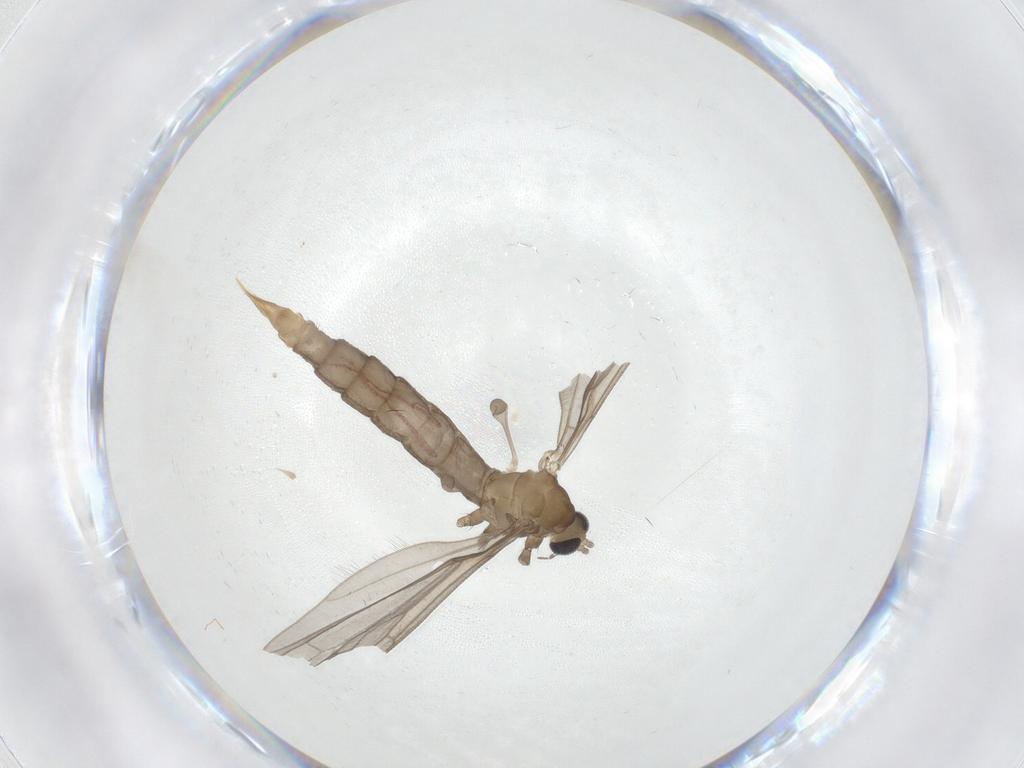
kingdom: Animalia
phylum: Arthropoda
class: Insecta
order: Diptera
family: Limoniidae
